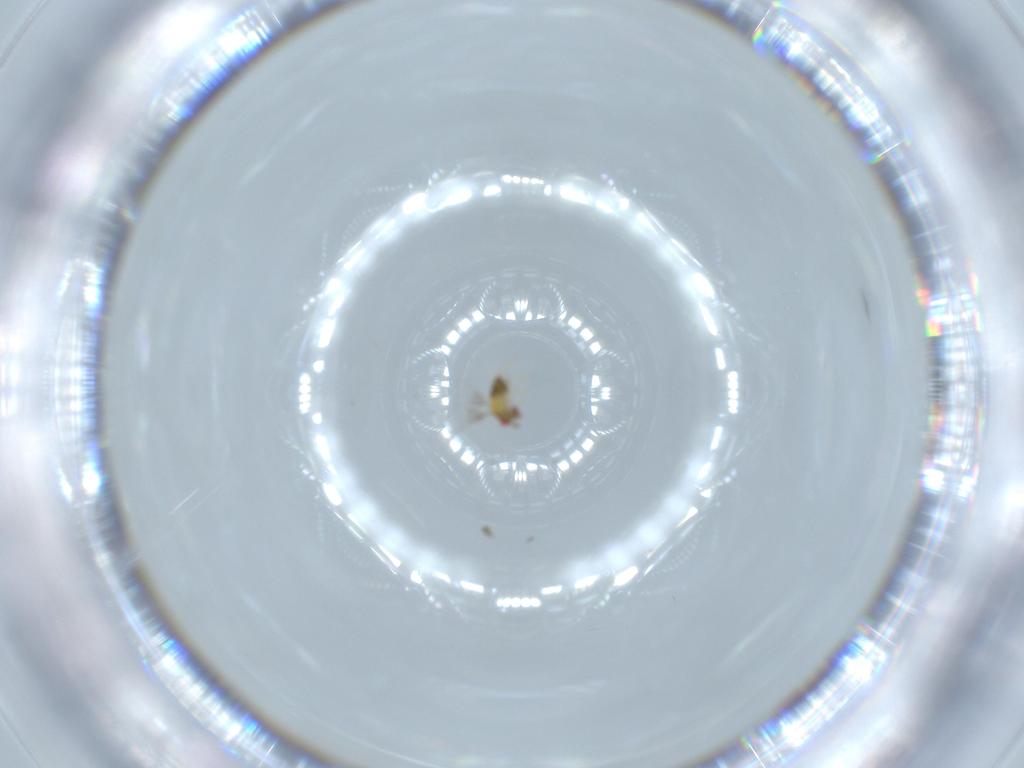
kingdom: Animalia
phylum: Arthropoda
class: Insecta
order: Hymenoptera
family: Trichogrammatidae
